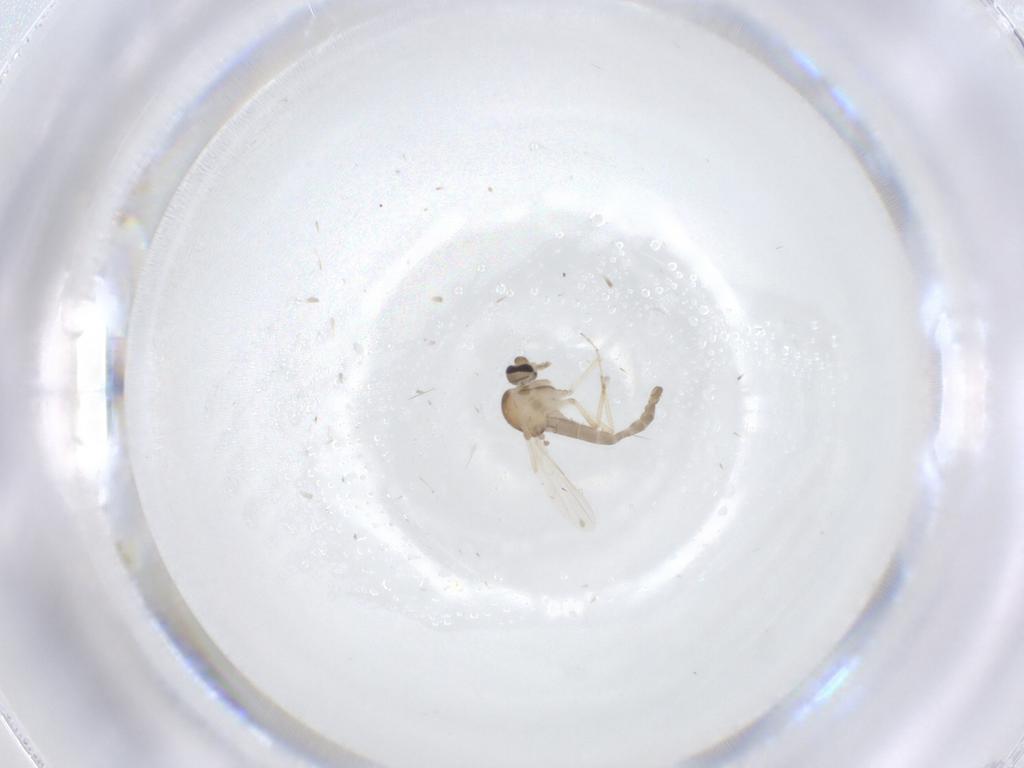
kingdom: Animalia
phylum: Arthropoda
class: Insecta
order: Diptera
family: Ceratopogonidae
